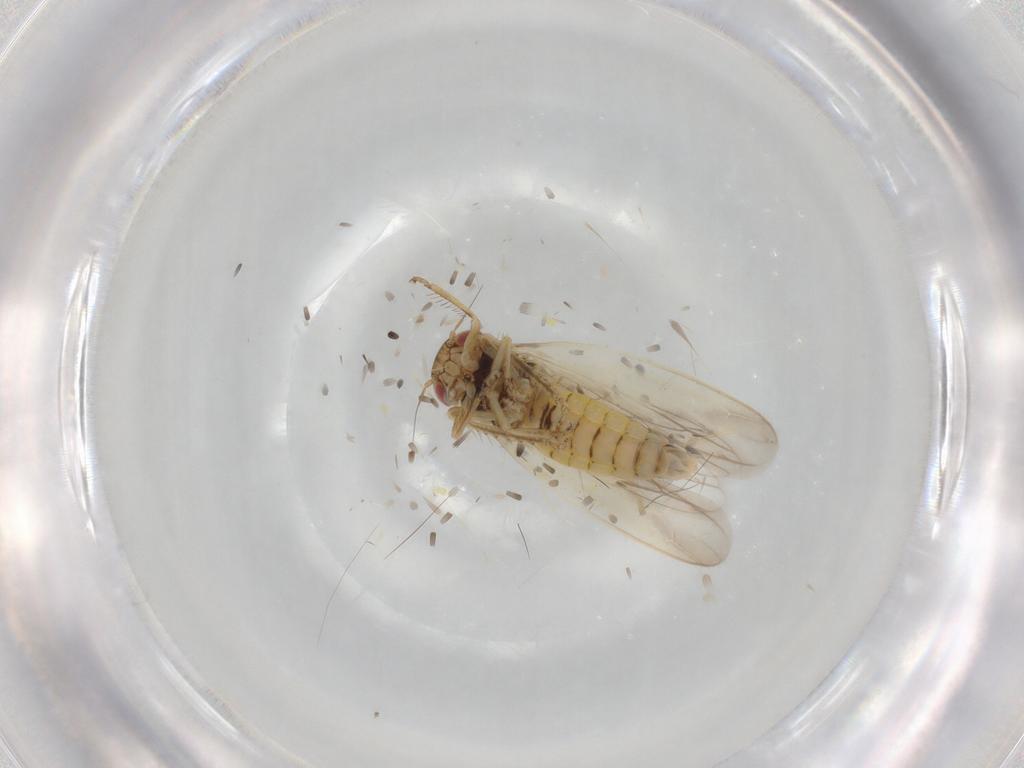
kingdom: Animalia
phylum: Arthropoda
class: Insecta
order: Hemiptera
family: Cicadellidae
